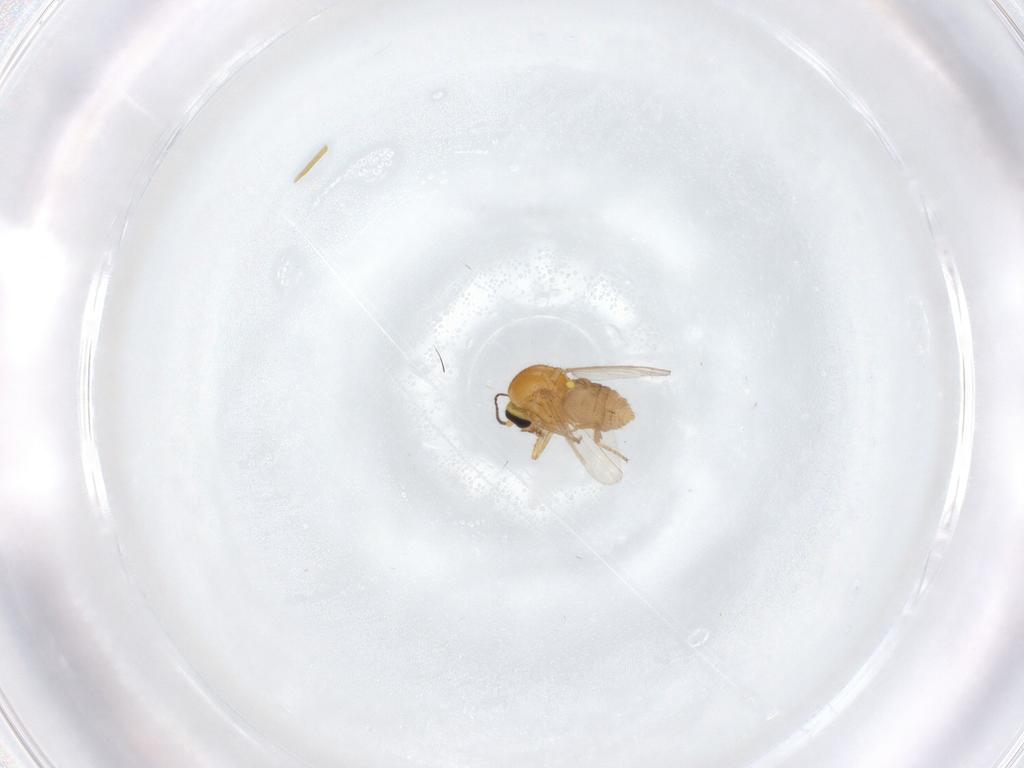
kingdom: Animalia
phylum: Arthropoda
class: Insecta
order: Diptera
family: Ceratopogonidae
